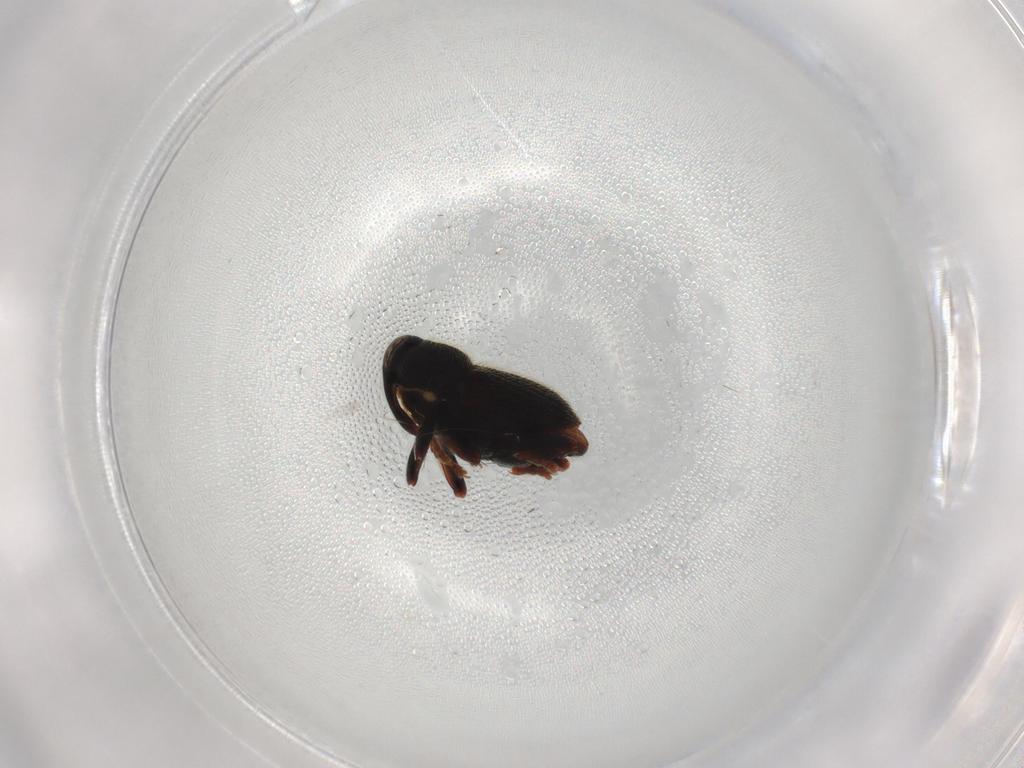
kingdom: Animalia
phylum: Arthropoda
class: Insecta
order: Coleoptera
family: Curculionidae
